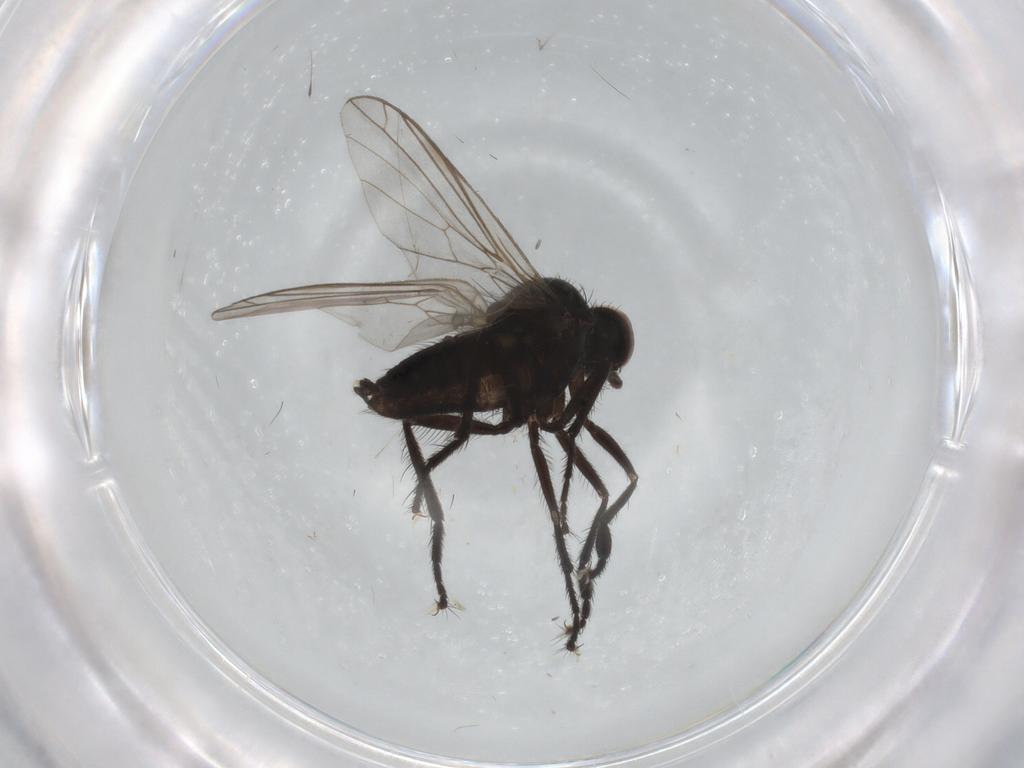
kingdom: Animalia
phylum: Arthropoda
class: Insecta
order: Diptera
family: Empididae
